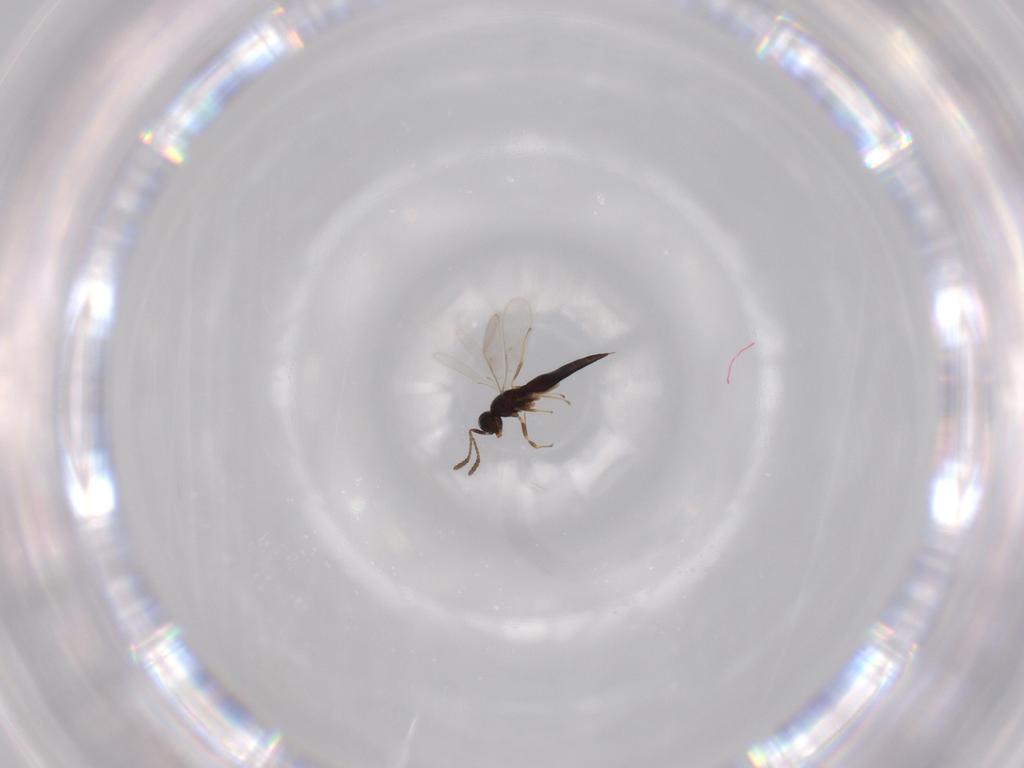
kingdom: Animalia
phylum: Arthropoda
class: Insecta
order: Hymenoptera
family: Scelionidae
